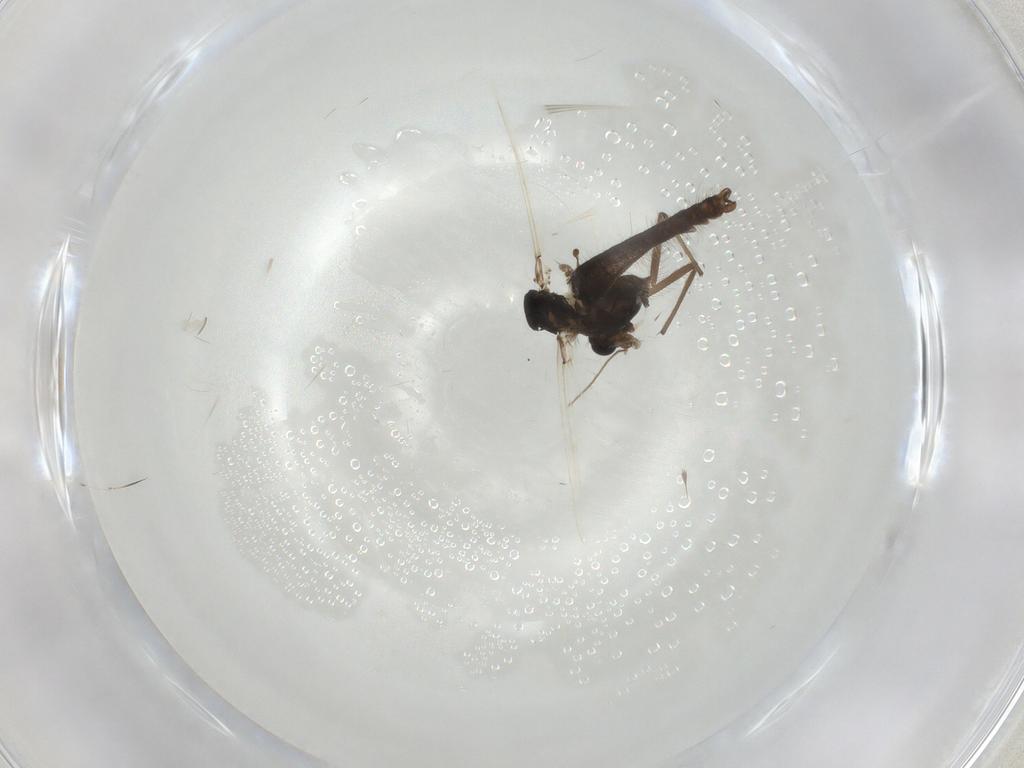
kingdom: Animalia
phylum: Arthropoda
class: Insecta
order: Diptera
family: Chironomidae
